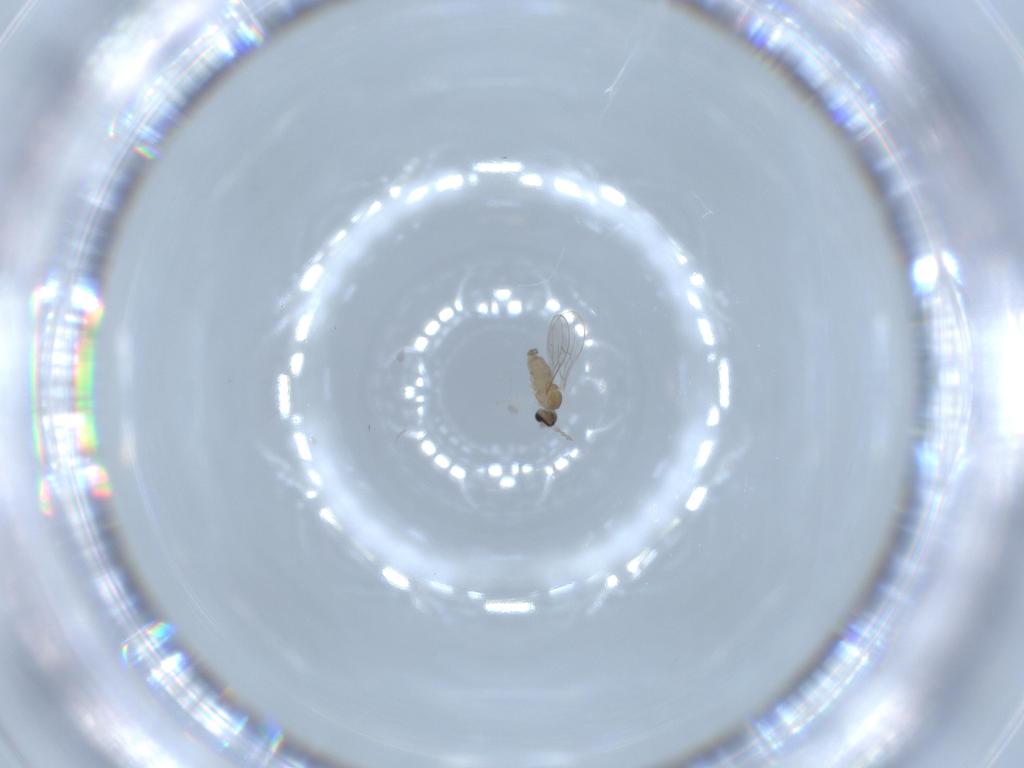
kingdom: Animalia
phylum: Arthropoda
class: Insecta
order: Diptera
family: Cecidomyiidae
